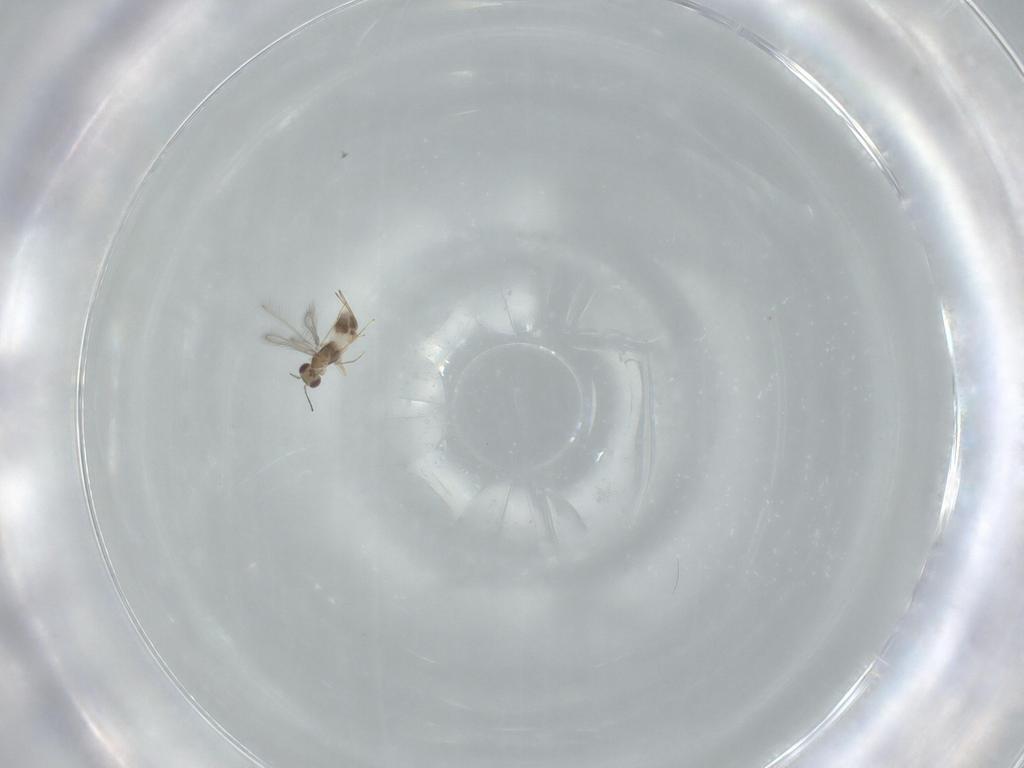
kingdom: Animalia
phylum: Arthropoda
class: Insecta
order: Hymenoptera
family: Mymaridae
